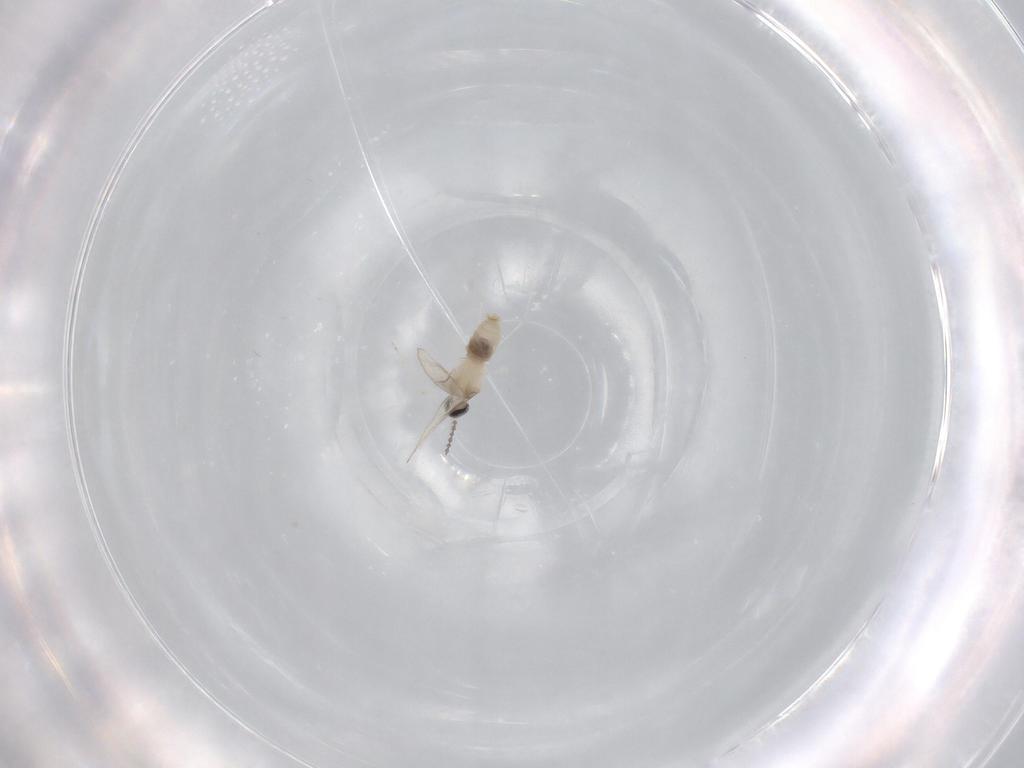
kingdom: Animalia
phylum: Arthropoda
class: Insecta
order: Diptera
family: Cecidomyiidae
